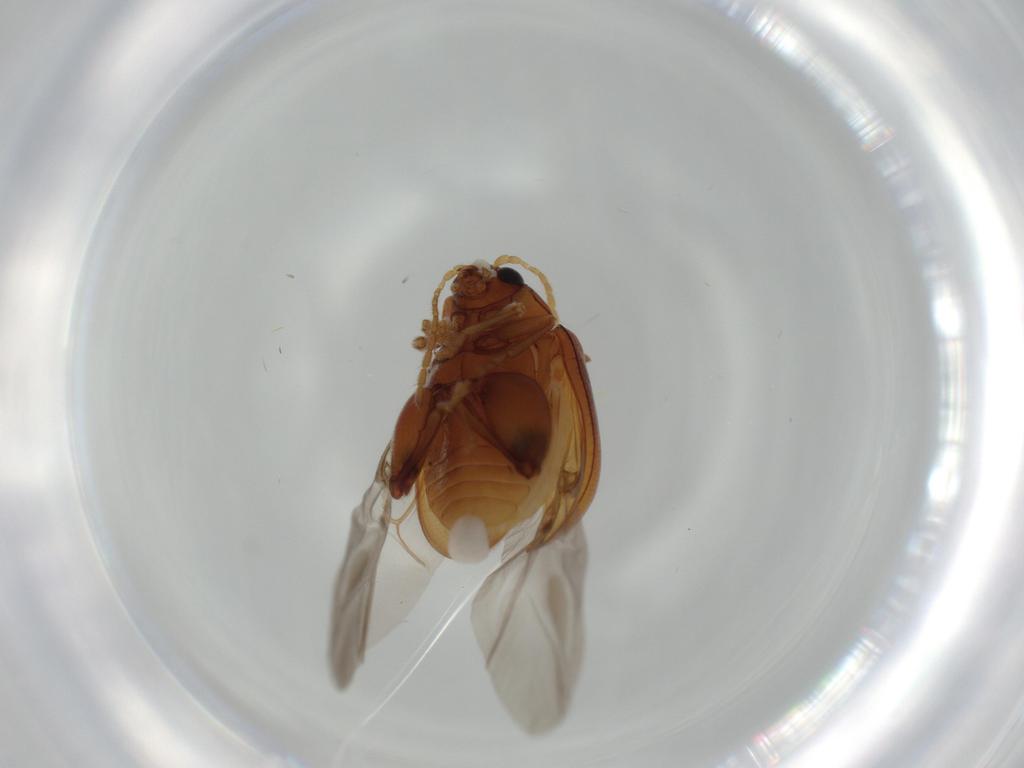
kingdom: Animalia
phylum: Arthropoda
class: Insecta
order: Coleoptera
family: Chrysomelidae
